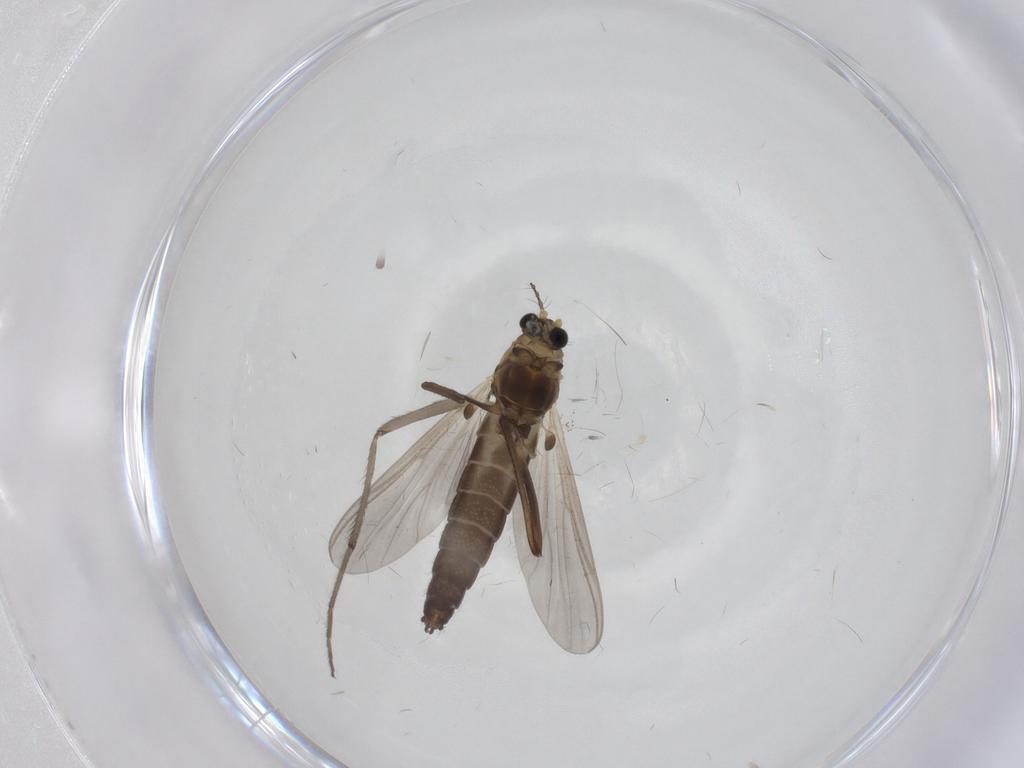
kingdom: Animalia
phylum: Arthropoda
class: Insecta
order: Diptera
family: Chironomidae
